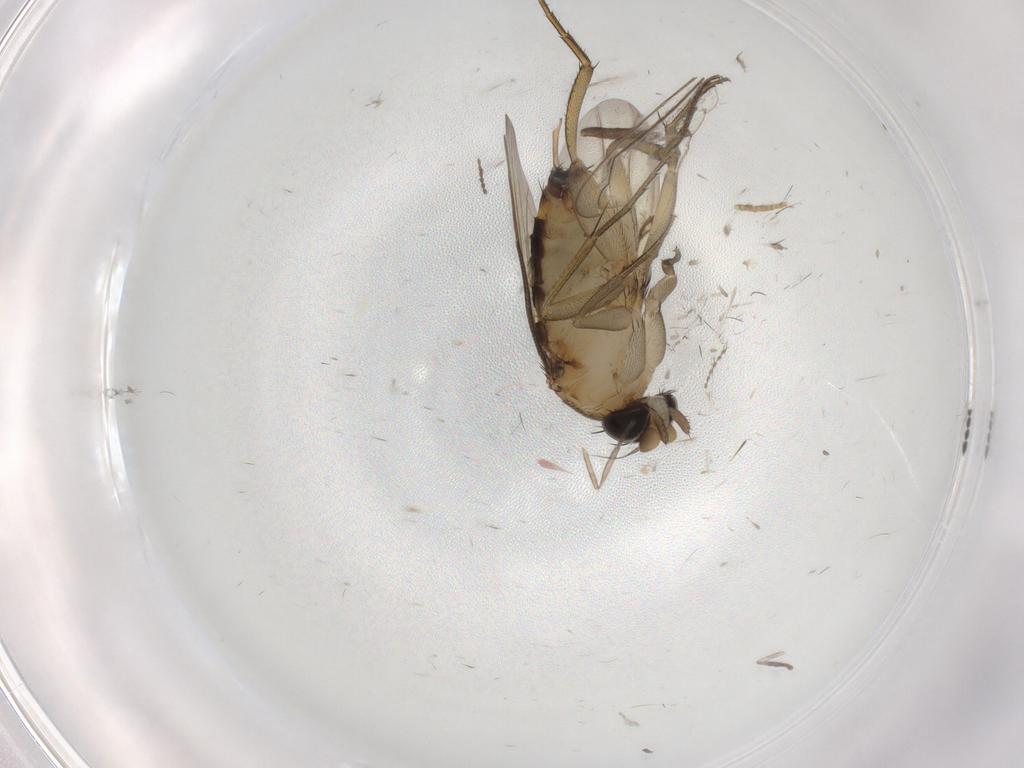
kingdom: Animalia
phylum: Arthropoda
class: Insecta
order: Diptera
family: Phoridae
